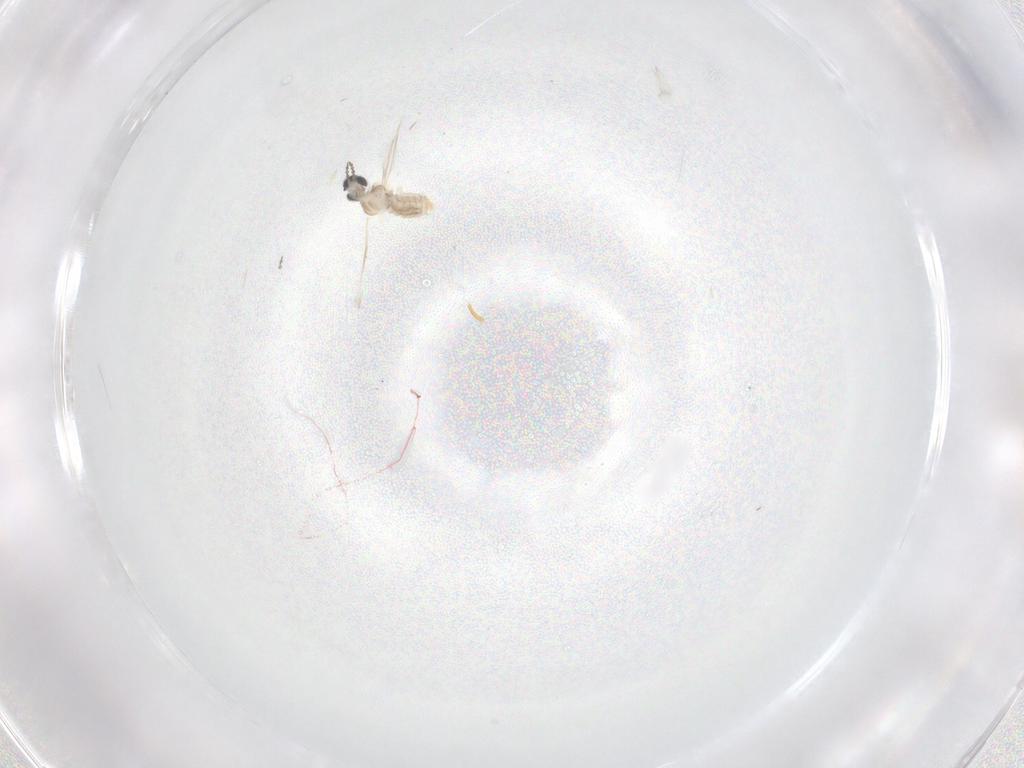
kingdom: Animalia
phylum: Arthropoda
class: Insecta
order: Diptera
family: Cecidomyiidae
